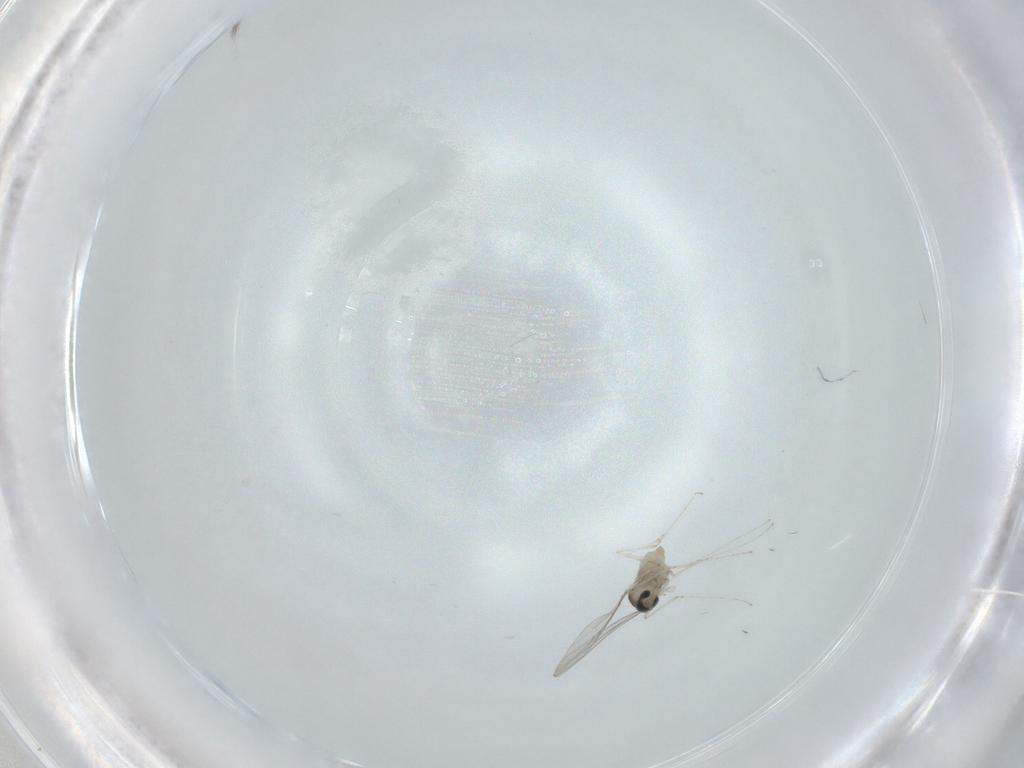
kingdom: Animalia
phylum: Arthropoda
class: Insecta
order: Diptera
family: Cecidomyiidae
